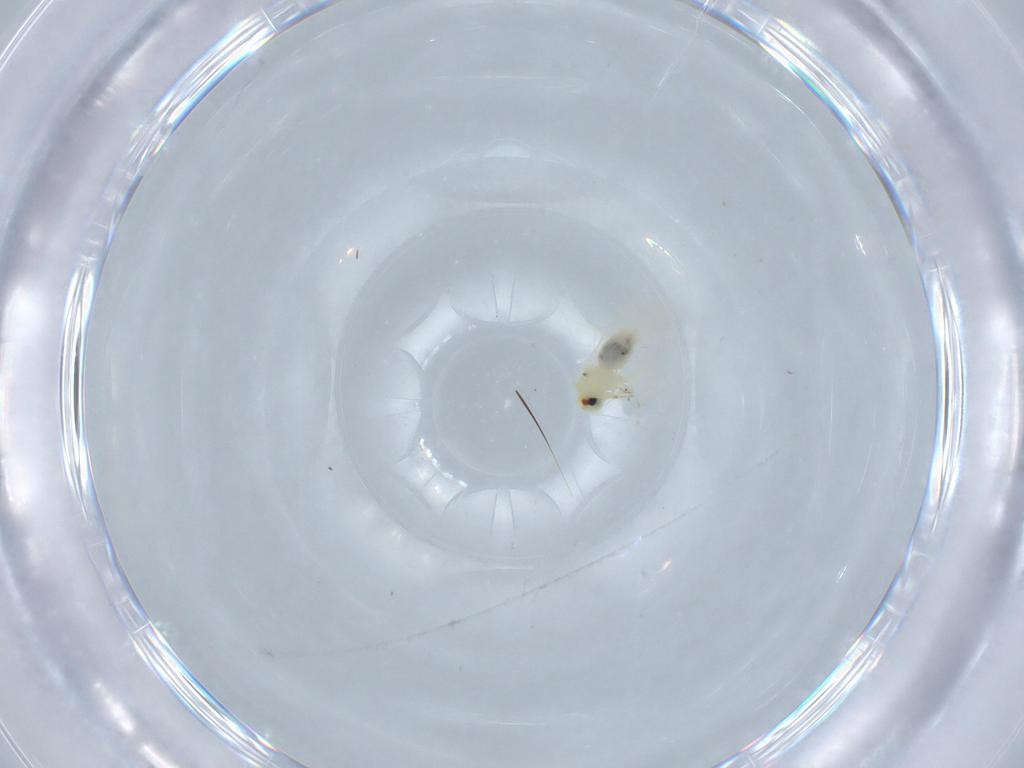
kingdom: Animalia
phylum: Arthropoda
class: Insecta
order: Hemiptera
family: Aleyrodidae
